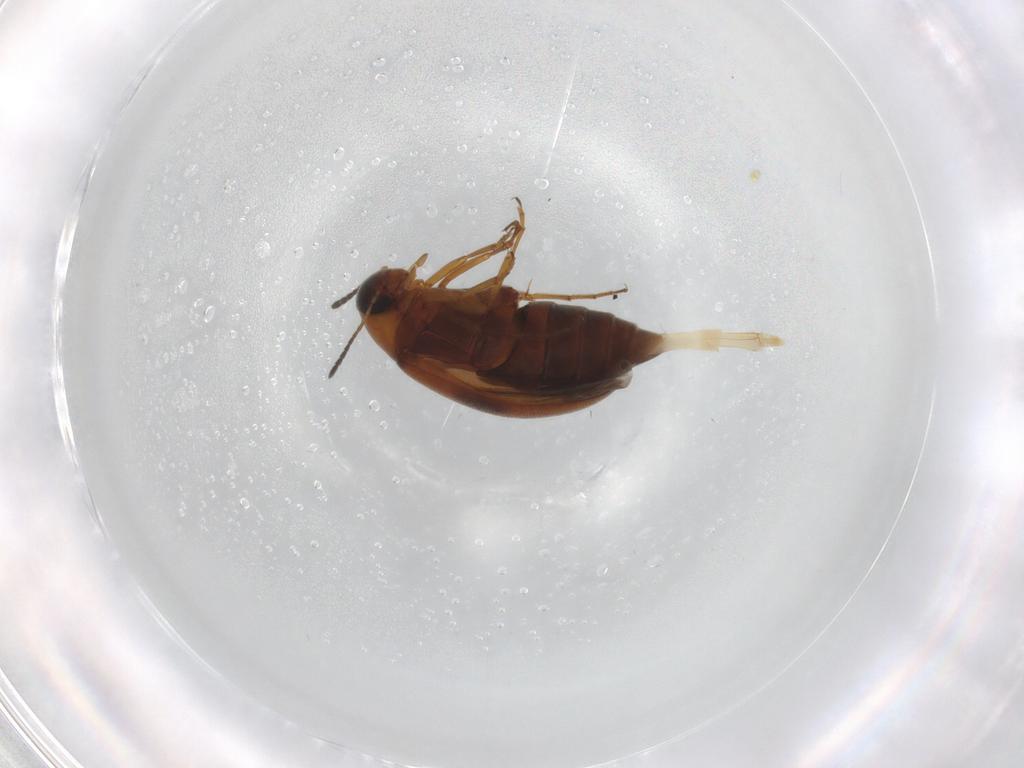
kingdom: Animalia
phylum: Arthropoda
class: Insecta
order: Coleoptera
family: Scraptiidae
